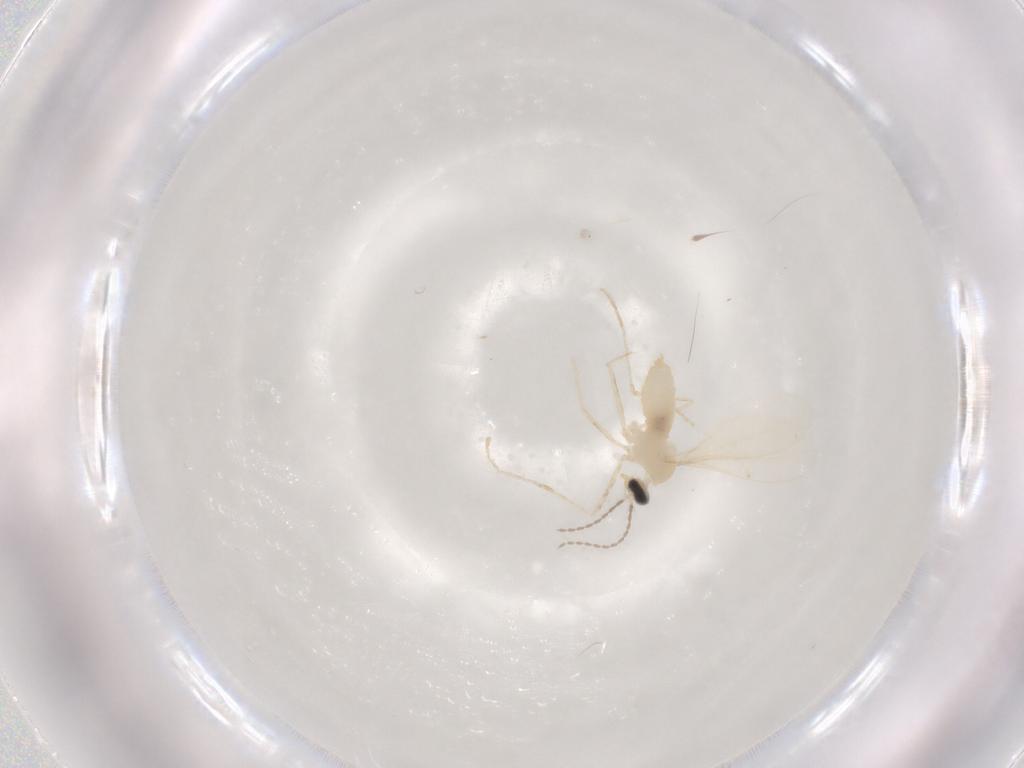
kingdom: Animalia
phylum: Arthropoda
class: Insecta
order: Diptera
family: Cecidomyiidae
